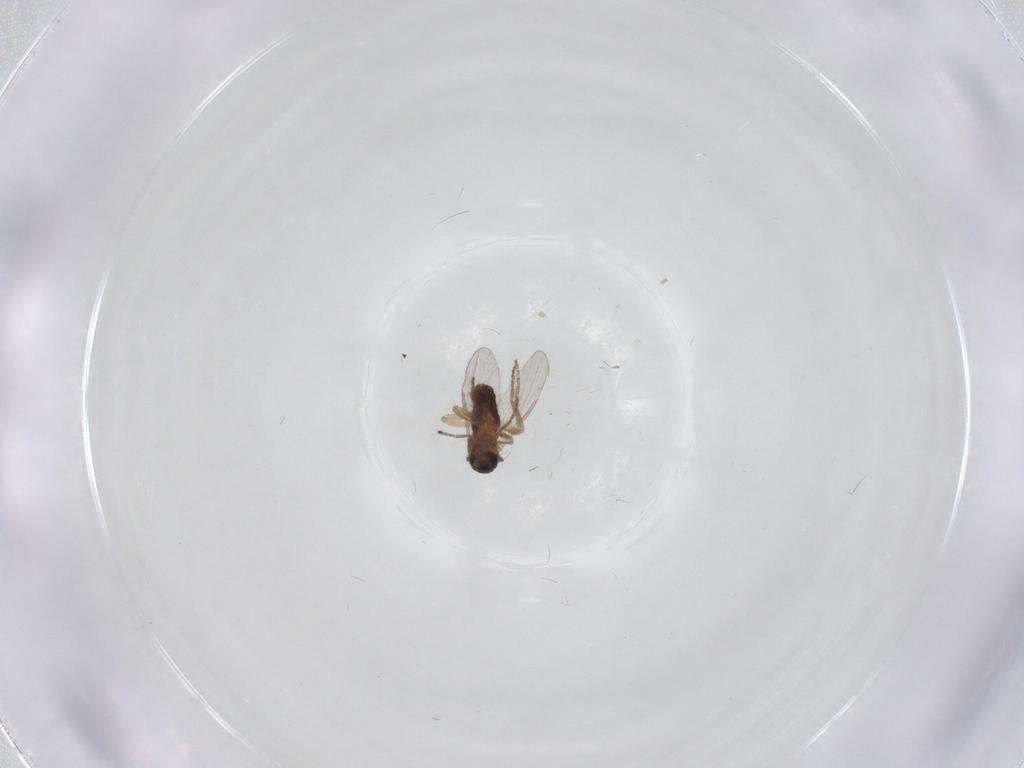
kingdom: Animalia
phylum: Arthropoda
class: Insecta
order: Diptera
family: Ceratopogonidae
